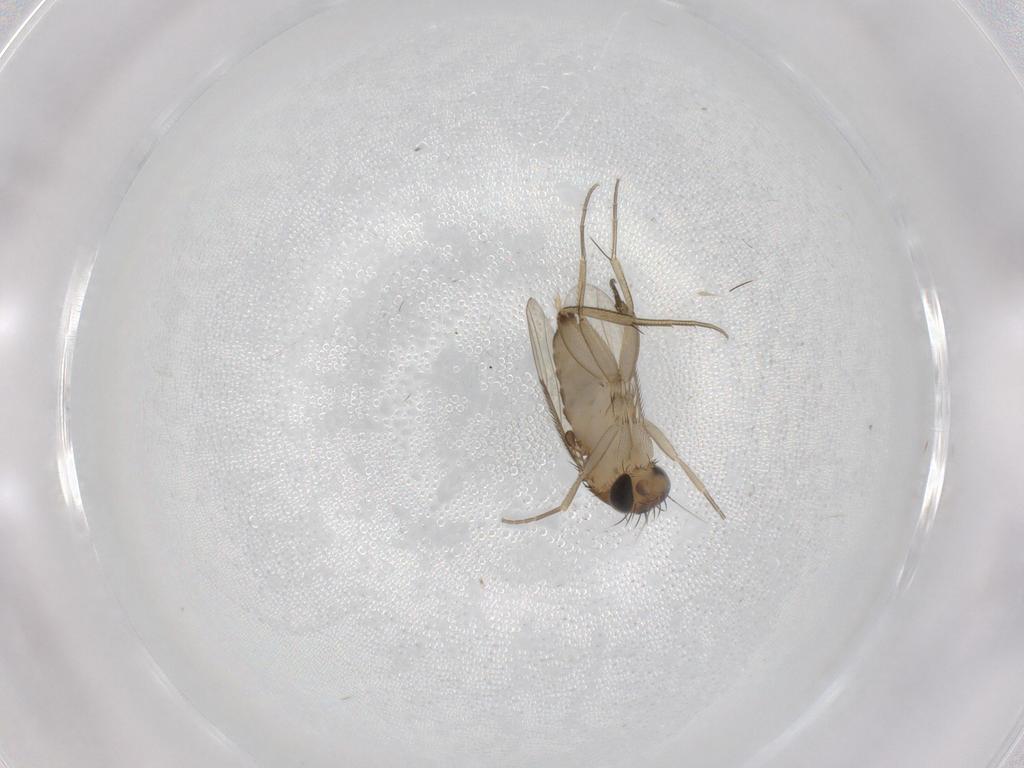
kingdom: Animalia
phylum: Arthropoda
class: Insecta
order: Diptera
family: Phoridae
